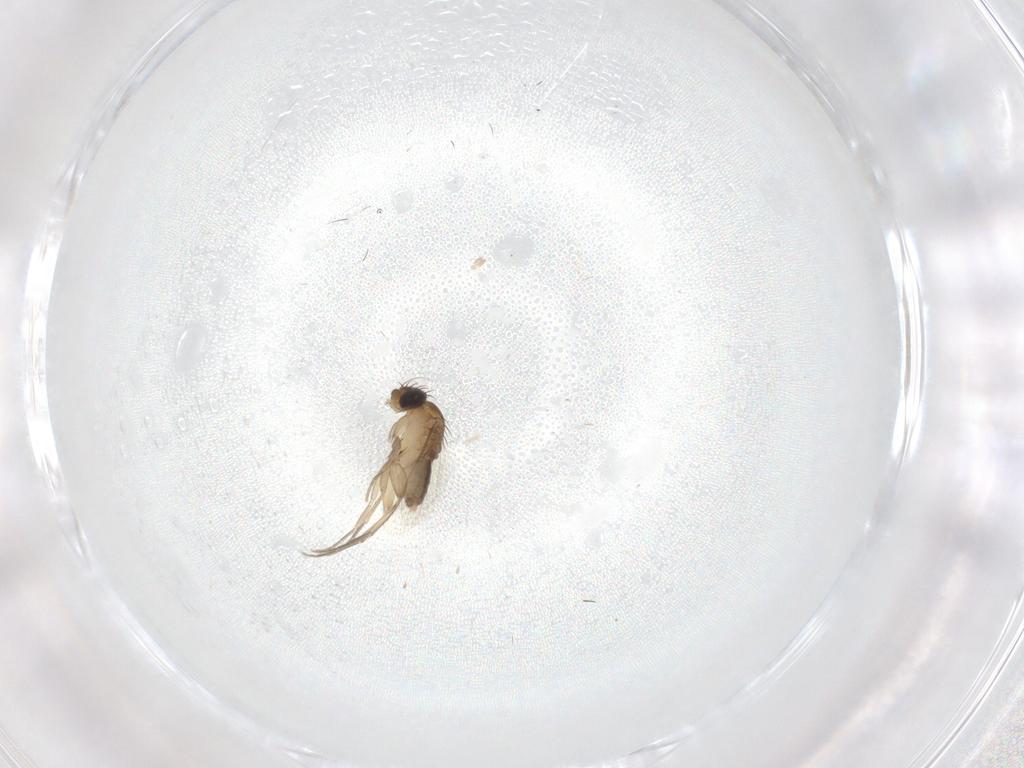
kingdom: Animalia
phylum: Arthropoda
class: Insecta
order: Diptera
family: Phoridae
